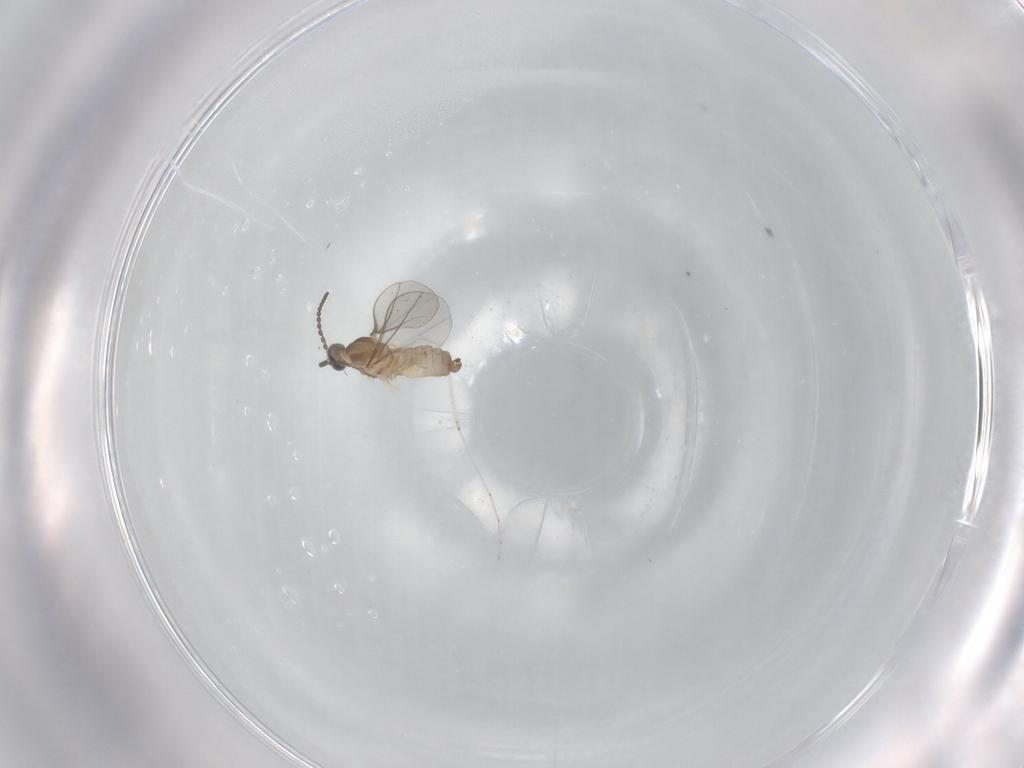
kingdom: Animalia
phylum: Arthropoda
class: Insecta
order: Diptera
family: Cecidomyiidae
